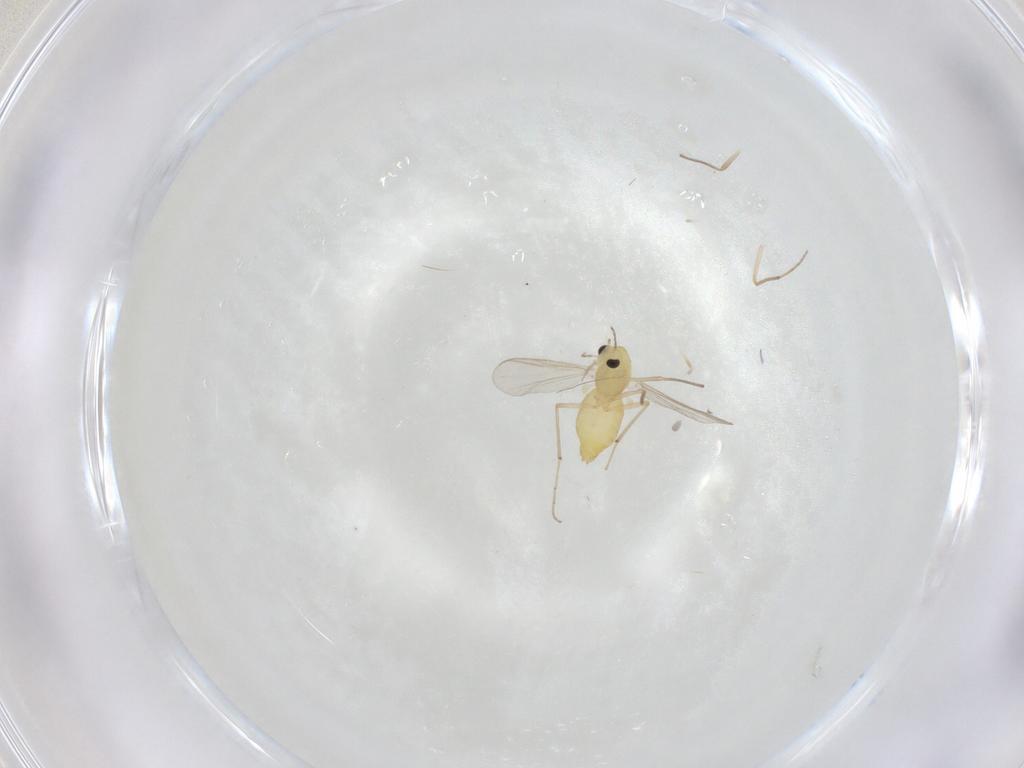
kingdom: Animalia
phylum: Arthropoda
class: Insecta
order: Diptera
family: Chironomidae
